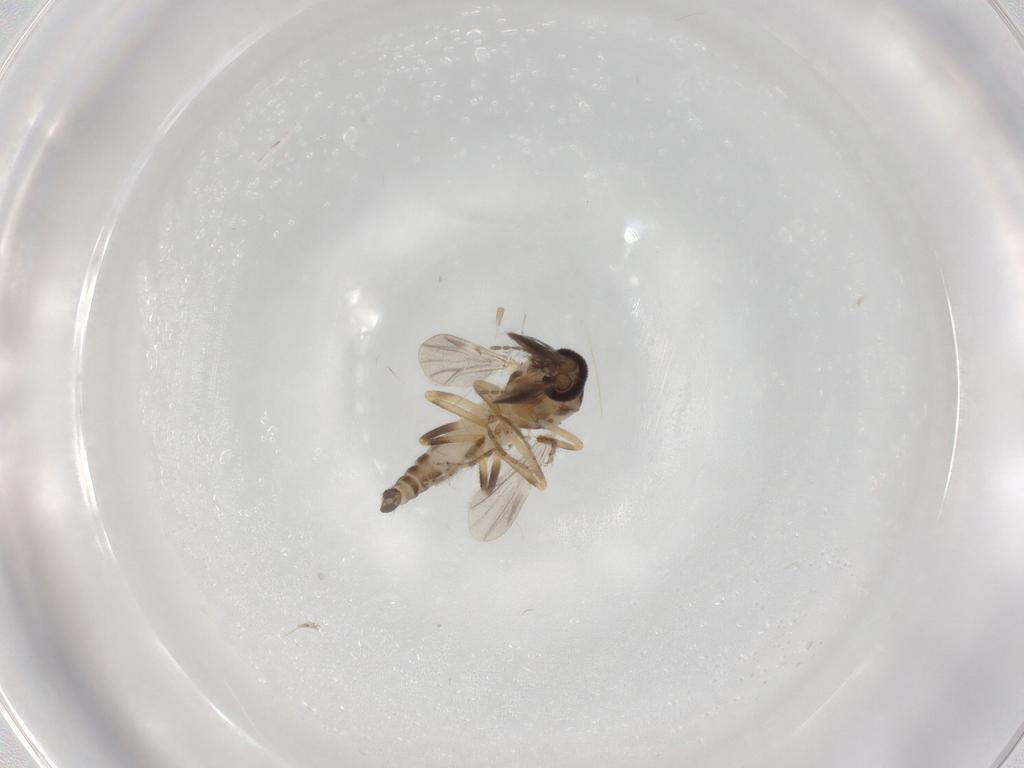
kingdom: Animalia
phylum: Arthropoda
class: Insecta
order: Diptera
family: Ceratopogonidae
